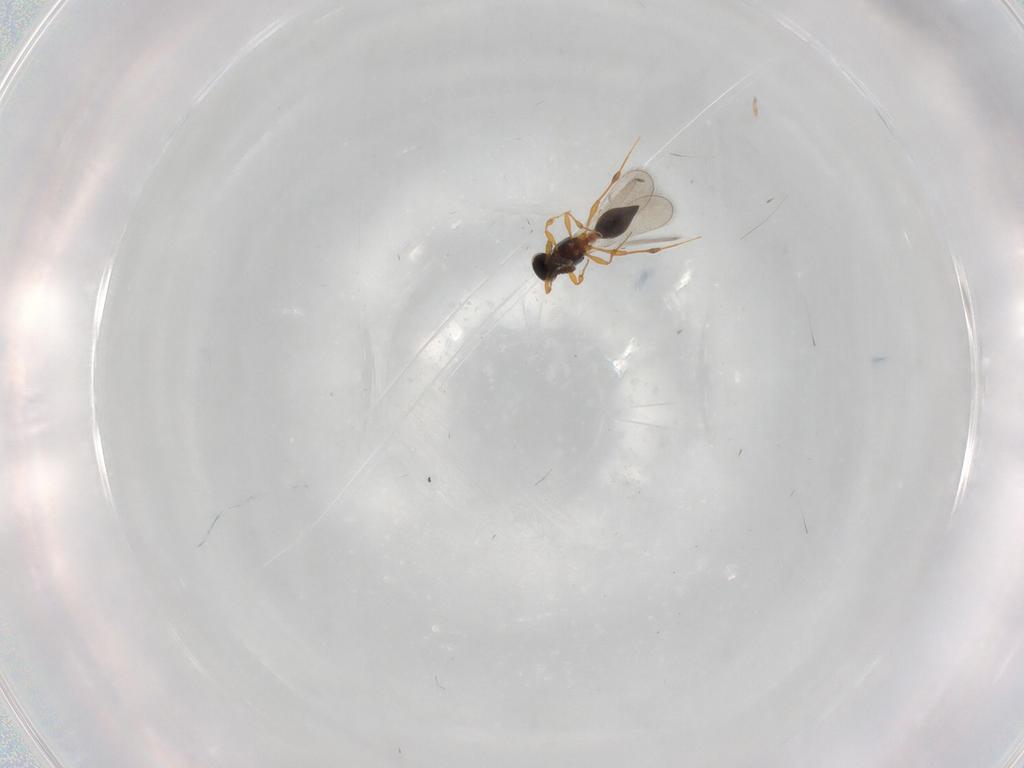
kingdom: Animalia
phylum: Arthropoda
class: Insecta
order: Hymenoptera
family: Platygastridae
